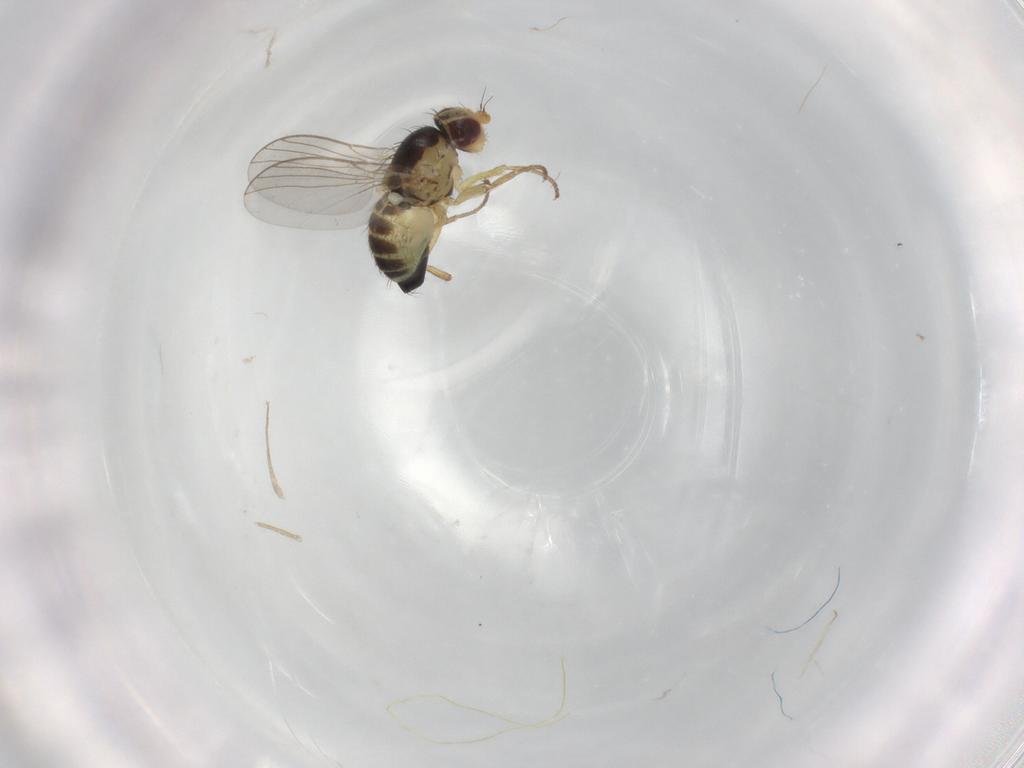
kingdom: Animalia
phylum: Arthropoda
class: Insecta
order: Diptera
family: Agromyzidae
